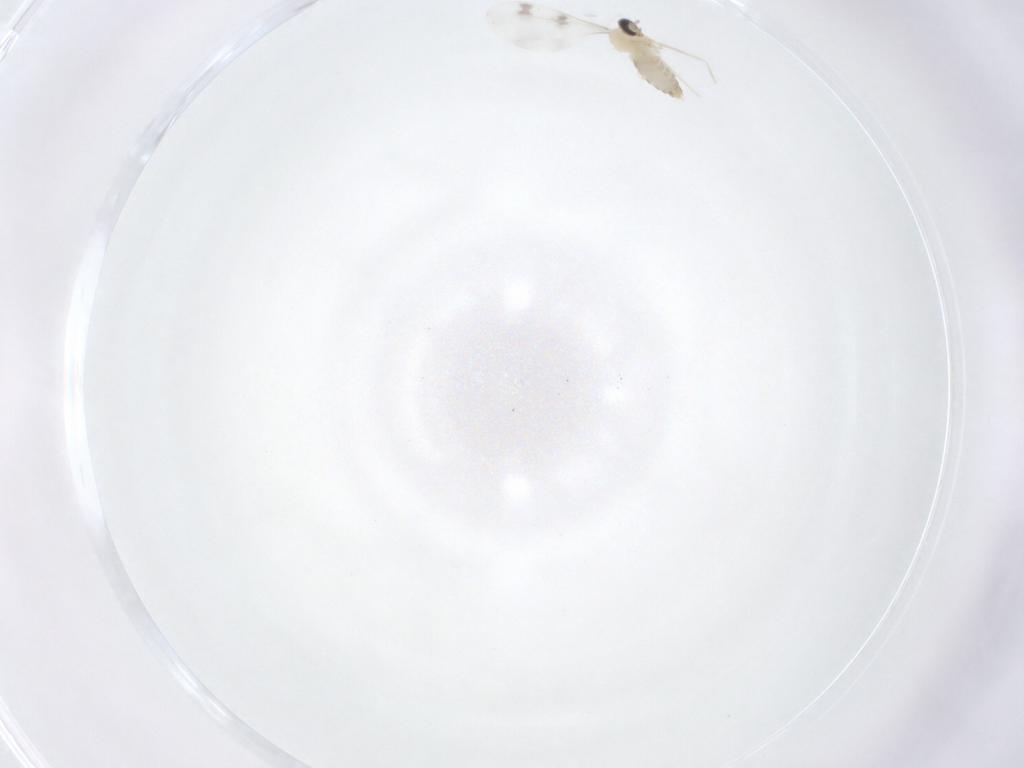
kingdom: Animalia
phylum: Arthropoda
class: Insecta
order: Diptera
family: Cecidomyiidae
